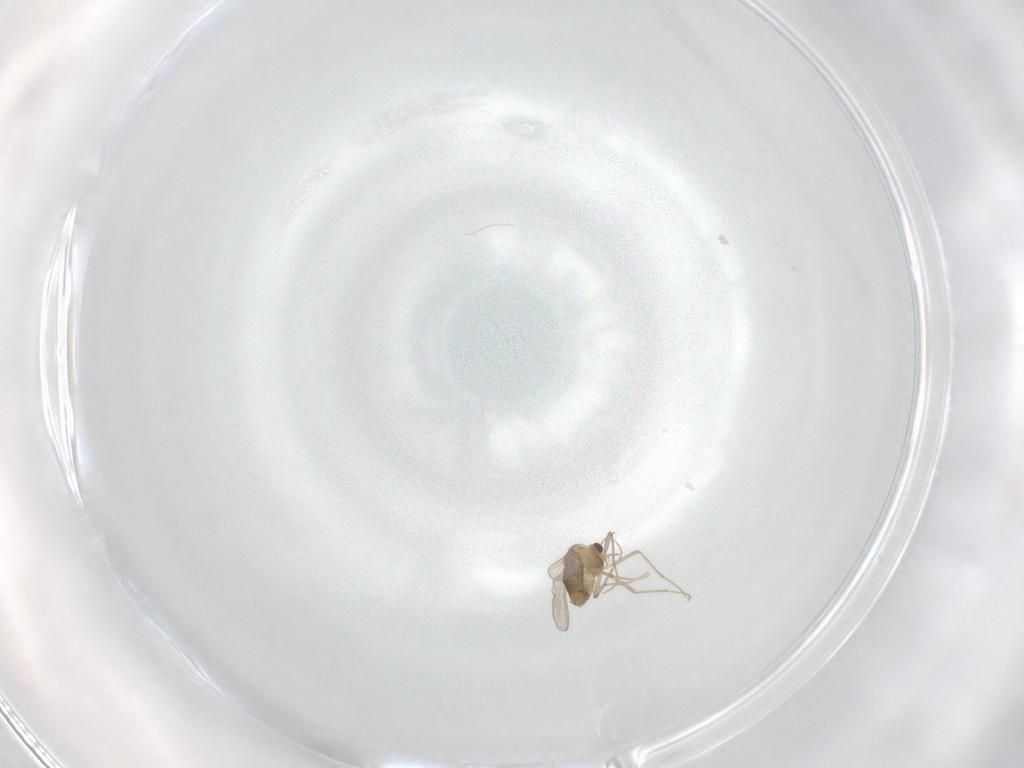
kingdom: Animalia
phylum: Arthropoda
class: Insecta
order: Diptera
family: Chironomidae
